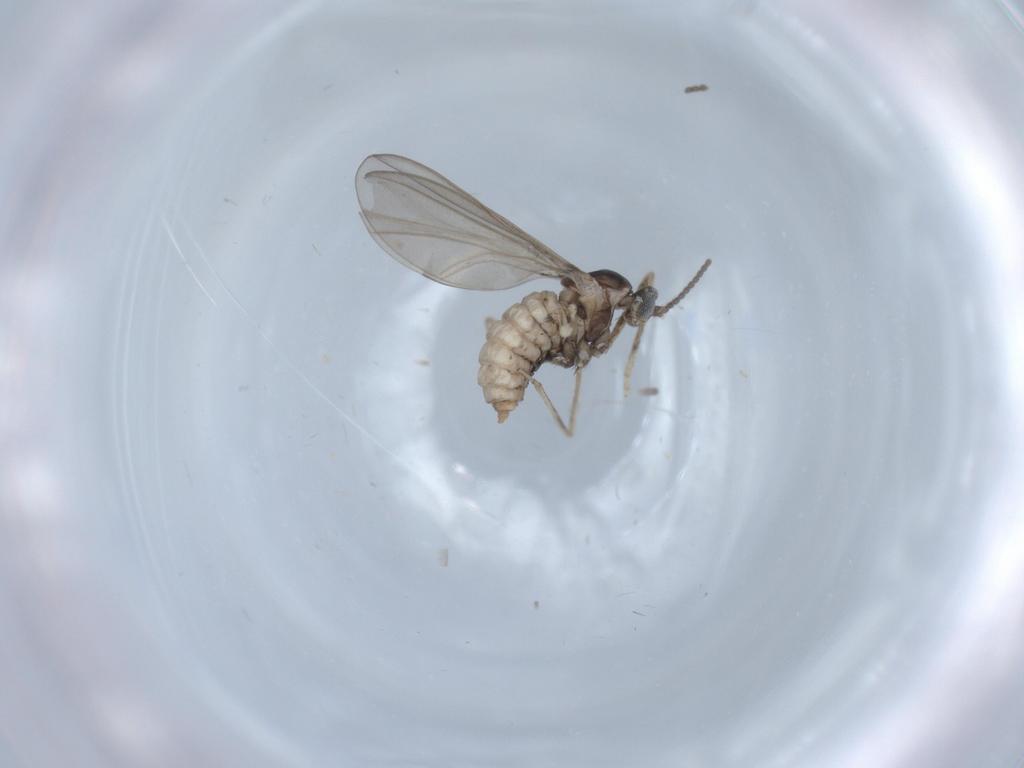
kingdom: Animalia
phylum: Arthropoda
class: Insecta
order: Diptera
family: Cecidomyiidae
